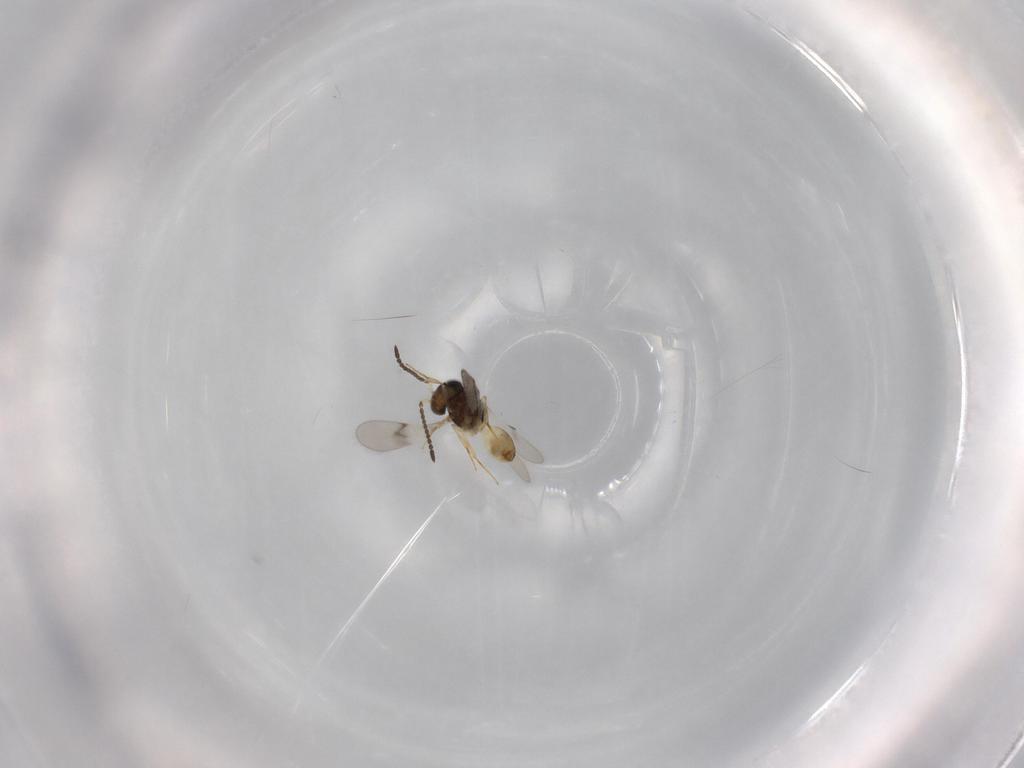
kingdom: Animalia
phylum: Arthropoda
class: Insecta
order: Hymenoptera
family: Scelionidae
